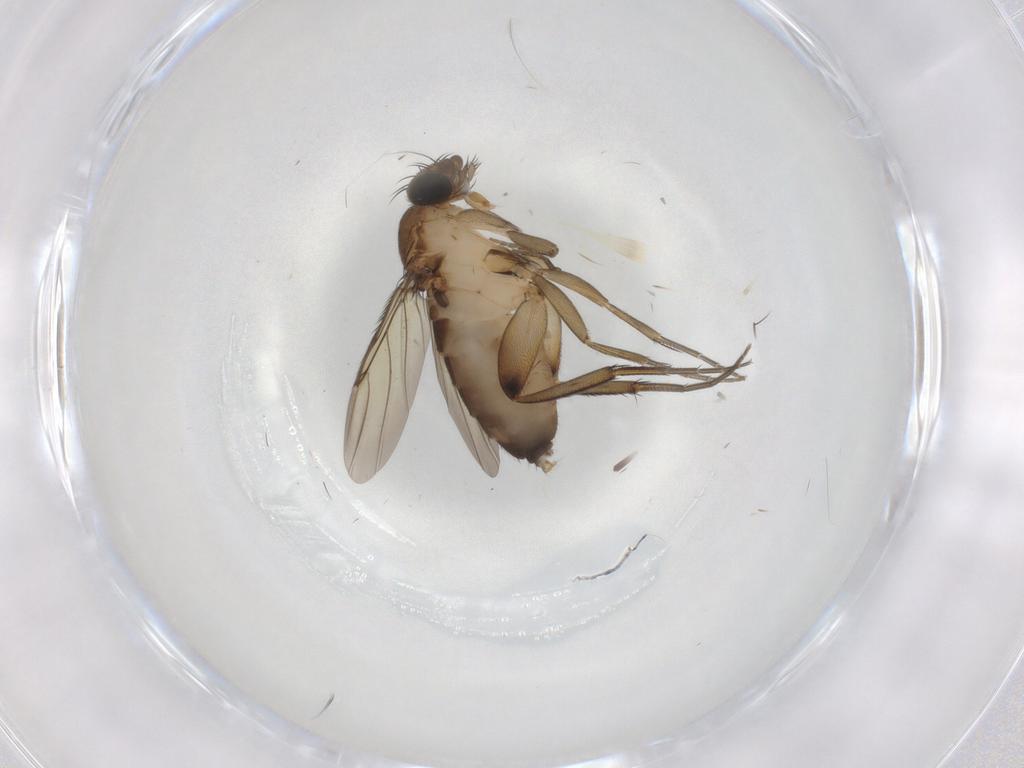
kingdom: Animalia
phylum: Arthropoda
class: Insecta
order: Diptera
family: Phoridae
